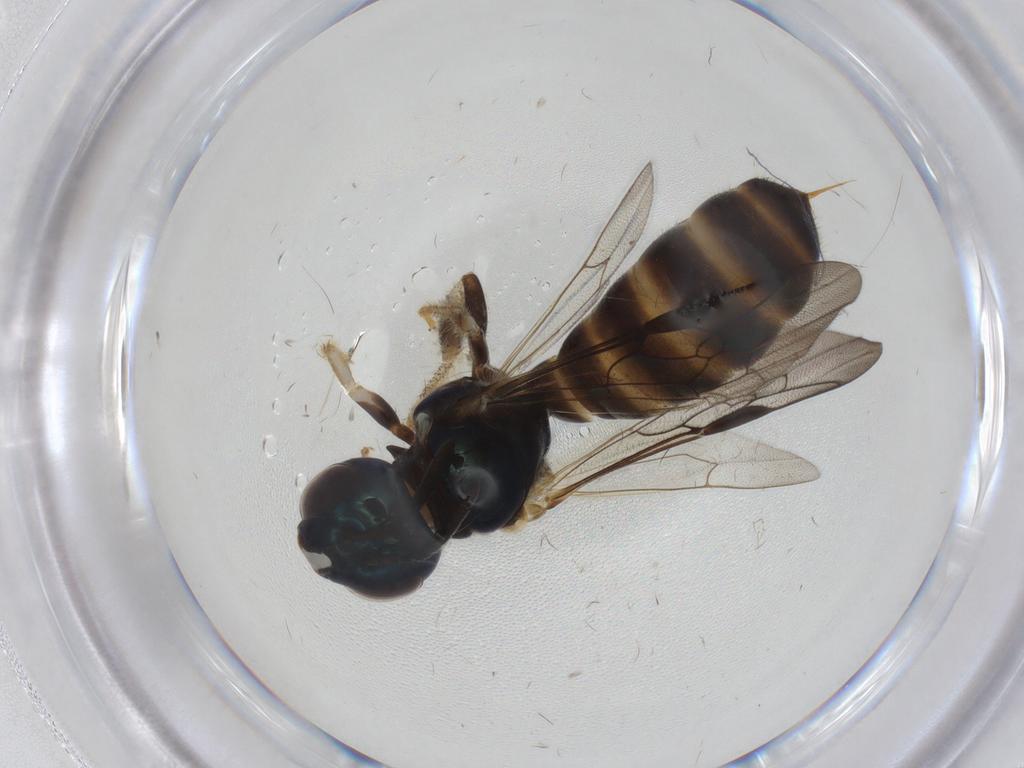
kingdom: Animalia
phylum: Arthropoda
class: Insecta
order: Hymenoptera
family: Apidae
